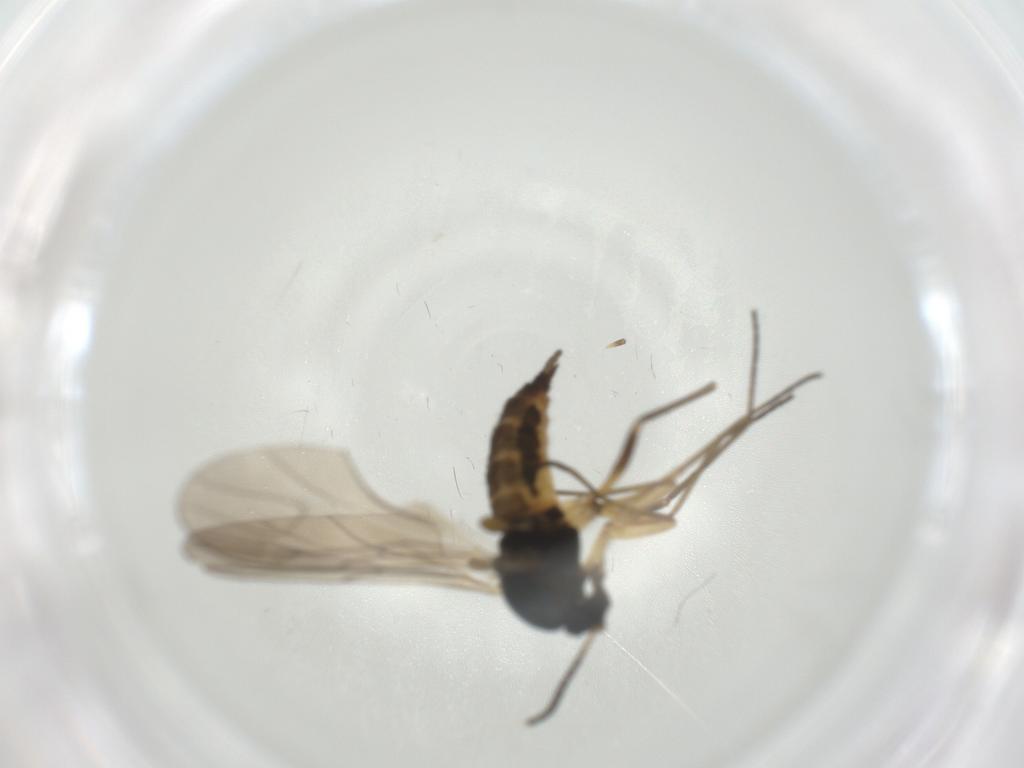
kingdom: Animalia
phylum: Arthropoda
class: Insecta
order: Diptera
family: Sciaridae
